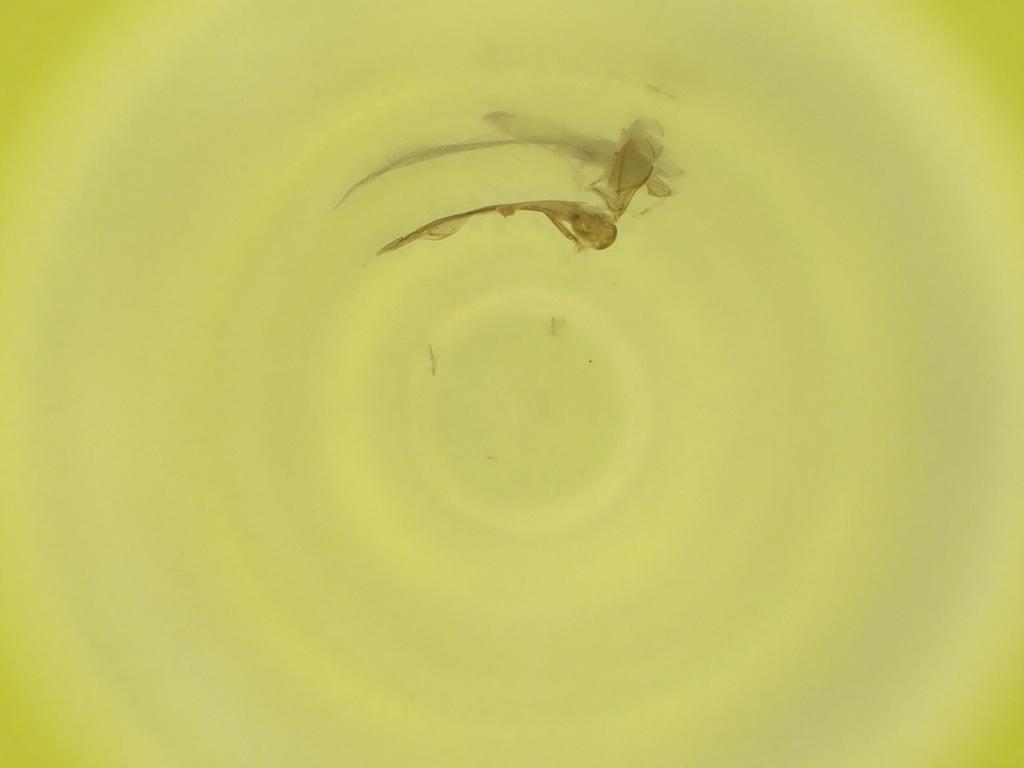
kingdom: Animalia
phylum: Arthropoda
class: Insecta
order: Diptera
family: Cecidomyiidae
